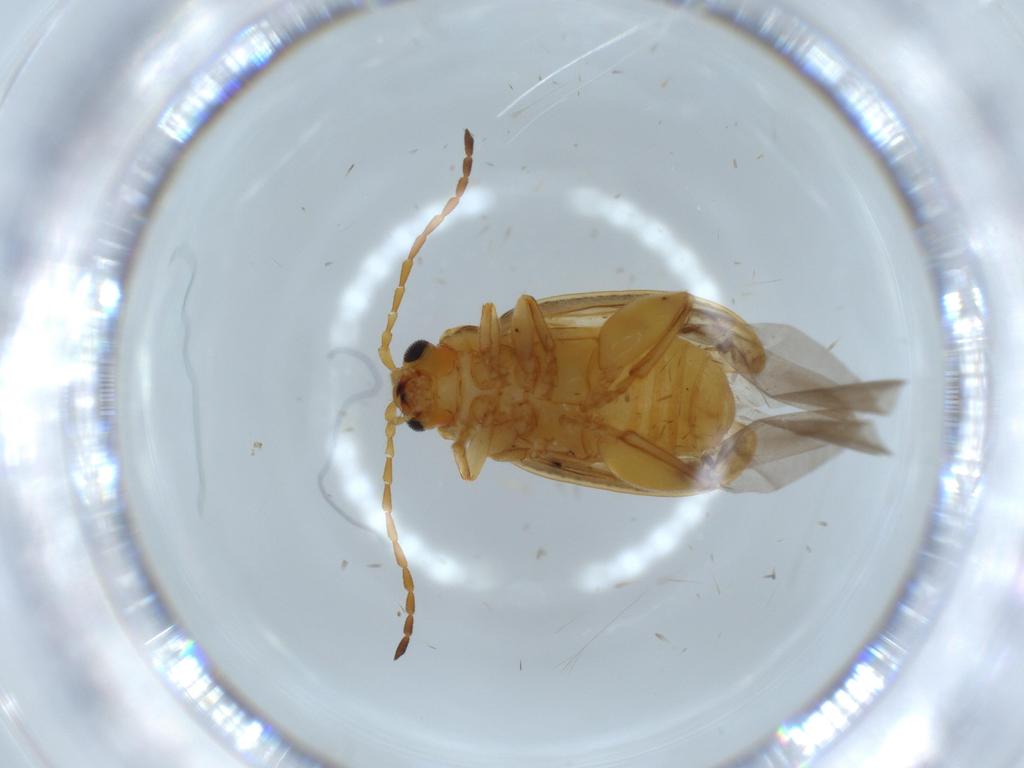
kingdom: Animalia
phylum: Arthropoda
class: Insecta
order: Coleoptera
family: Chrysomelidae
